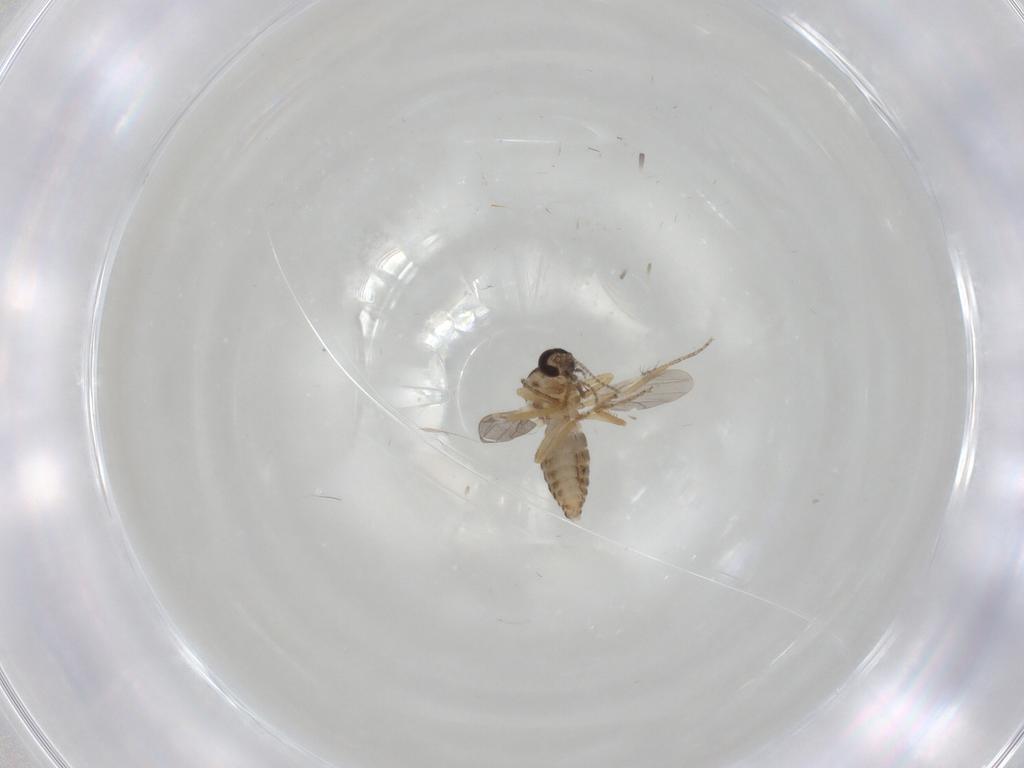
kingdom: Animalia
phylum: Arthropoda
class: Insecta
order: Diptera
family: Ceratopogonidae
